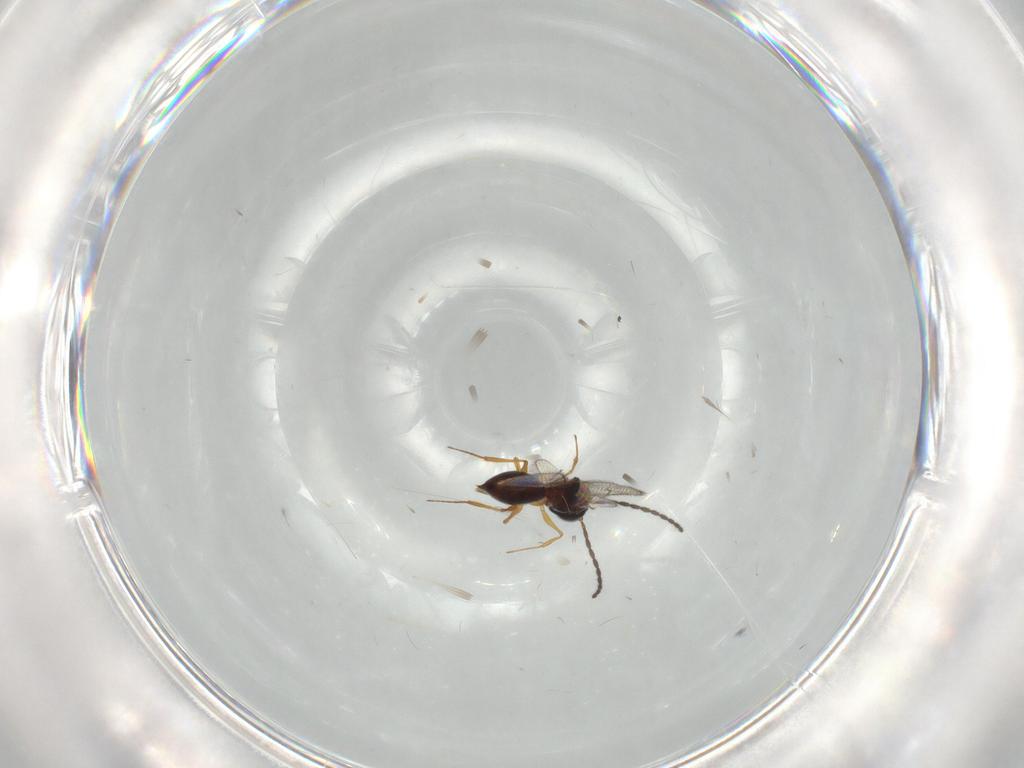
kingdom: Animalia
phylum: Arthropoda
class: Insecta
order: Hymenoptera
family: Figitidae
